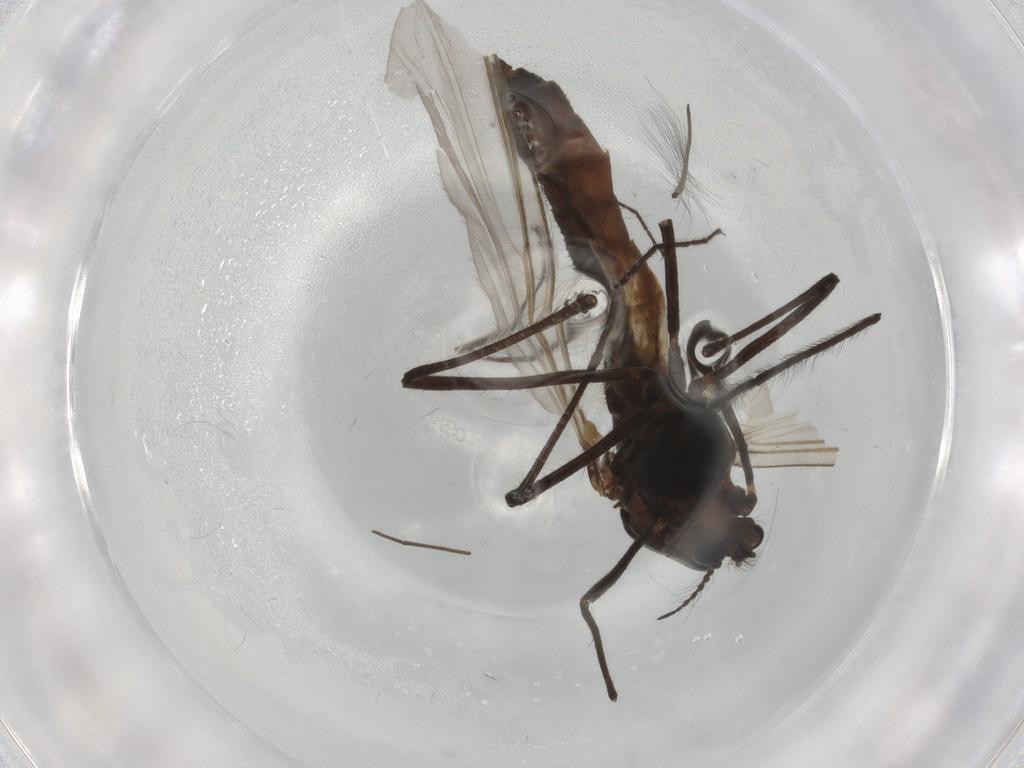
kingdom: Animalia
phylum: Arthropoda
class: Insecta
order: Diptera
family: Chironomidae
